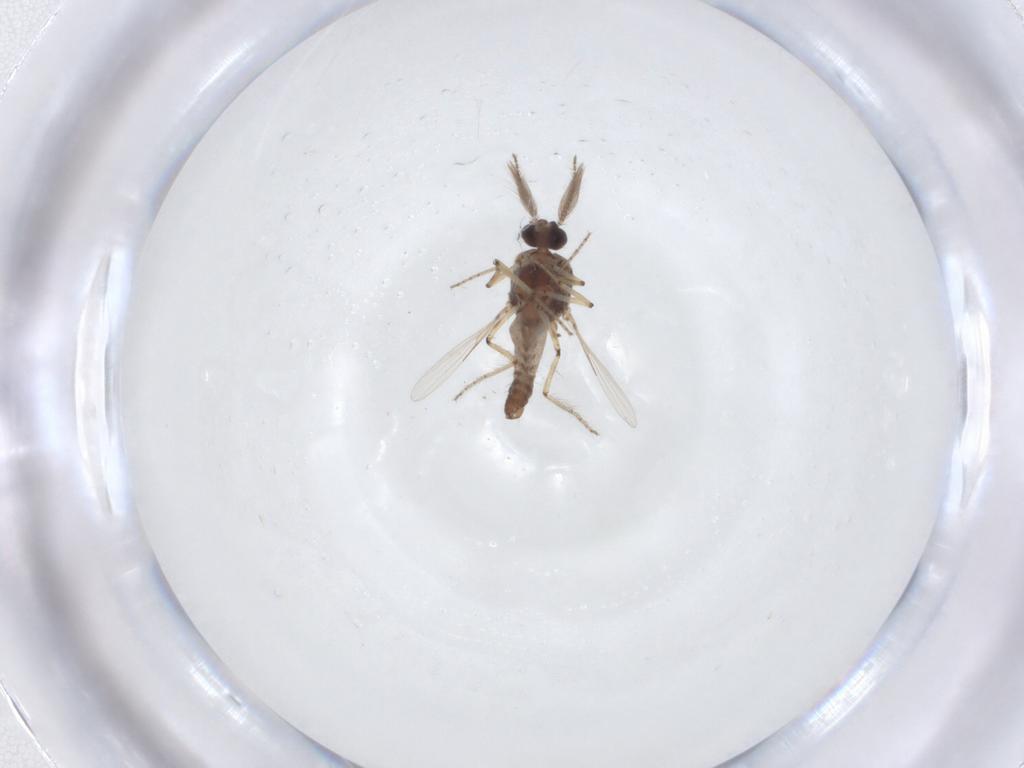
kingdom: Animalia
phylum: Arthropoda
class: Insecta
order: Diptera
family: Ceratopogonidae
